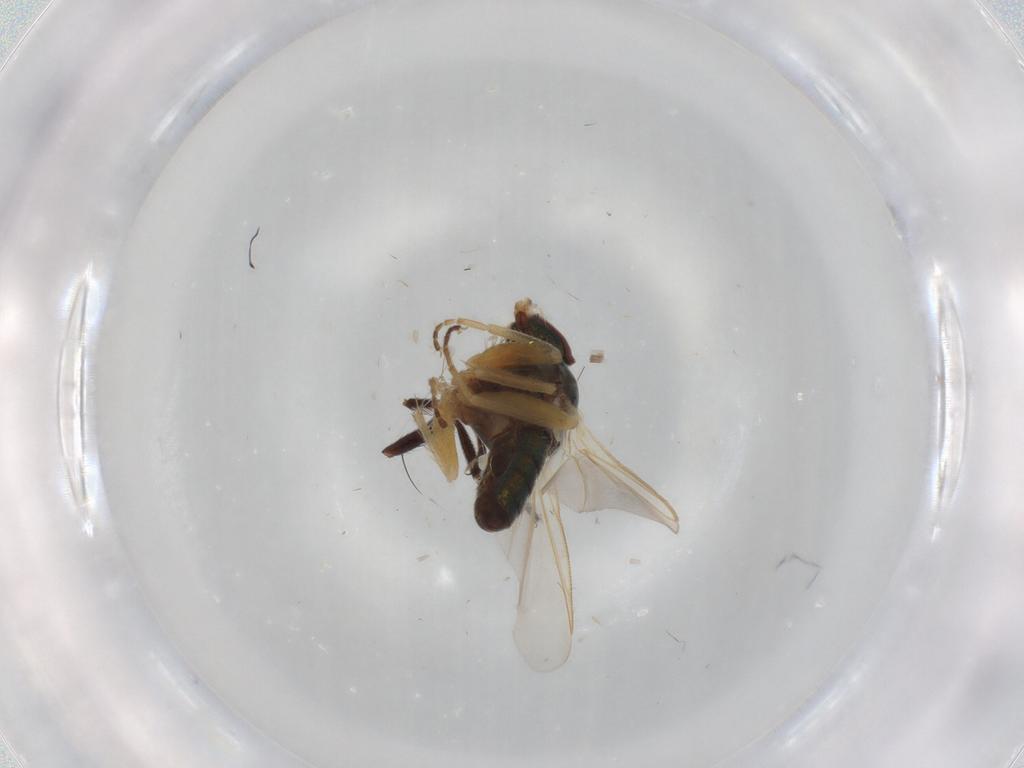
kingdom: Animalia
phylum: Arthropoda
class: Insecta
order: Diptera
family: Dolichopodidae
